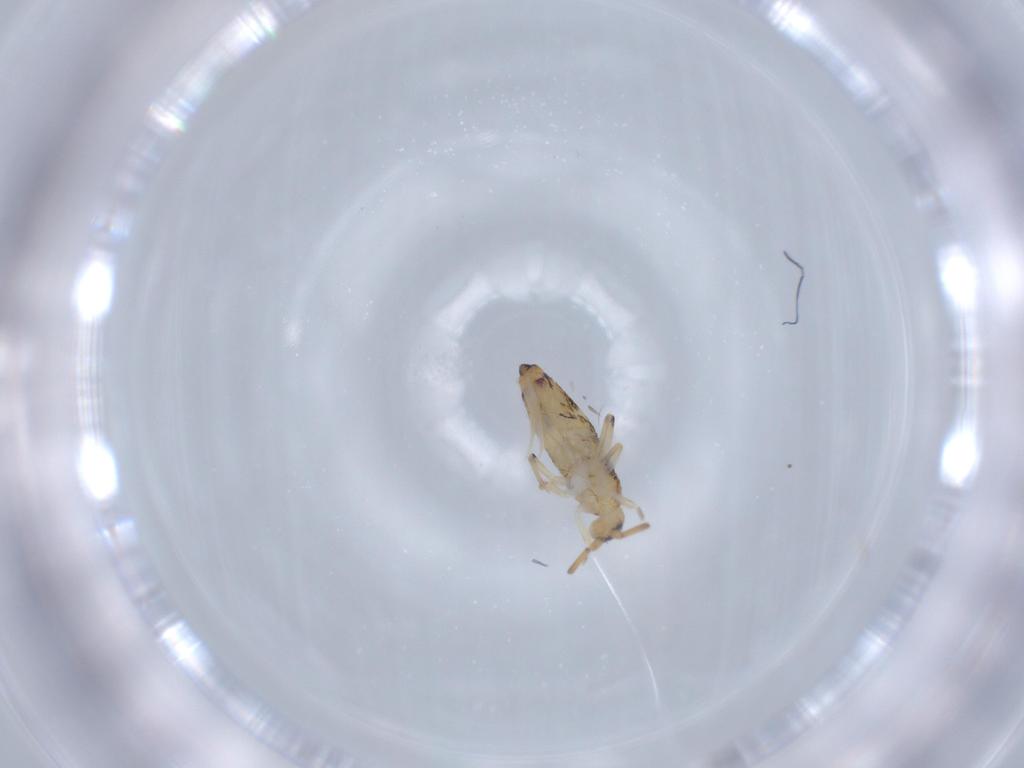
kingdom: Animalia
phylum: Arthropoda
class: Collembola
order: Entomobryomorpha
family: Entomobryidae
